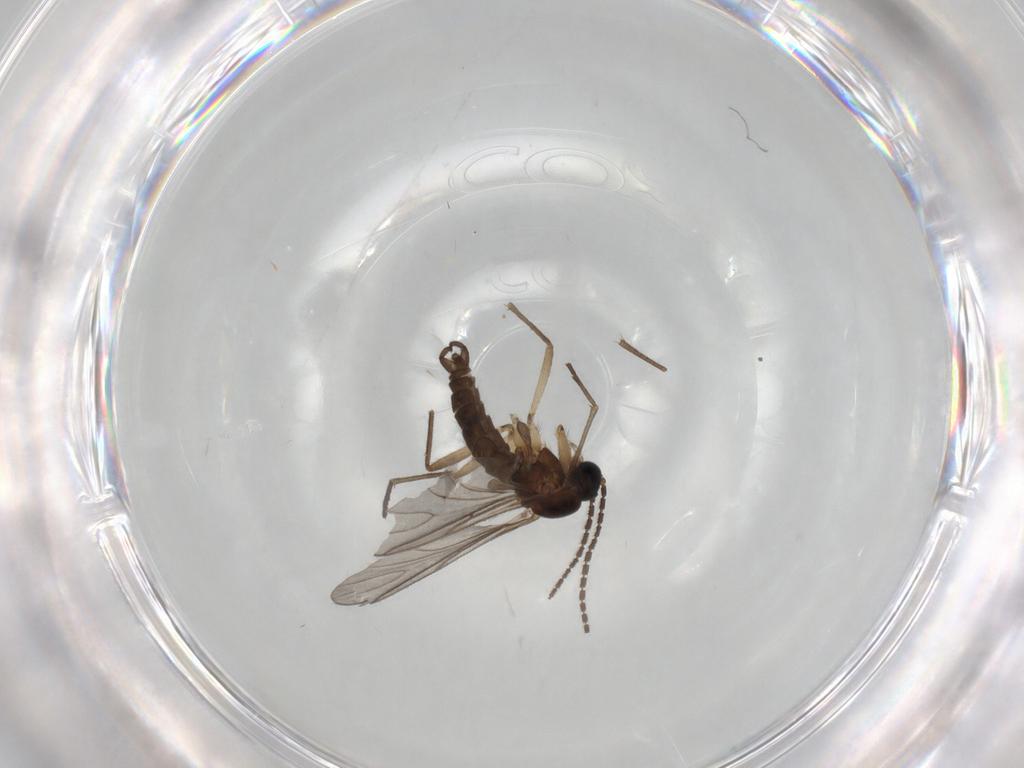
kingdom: Animalia
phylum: Arthropoda
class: Insecta
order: Diptera
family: Sciaridae
